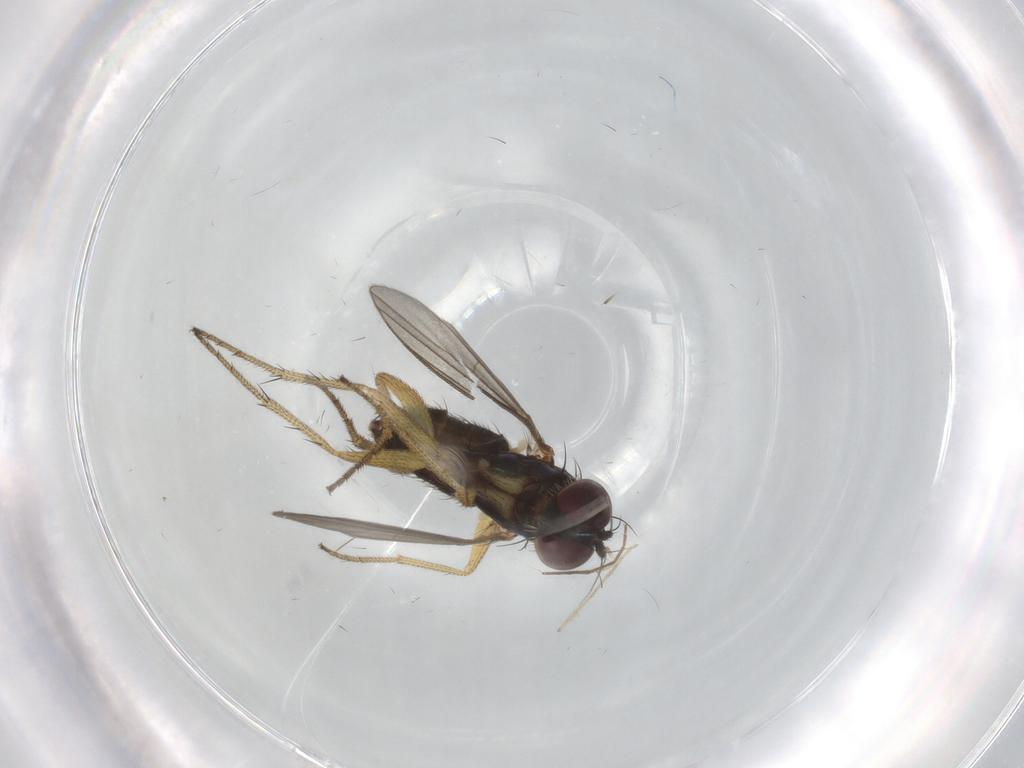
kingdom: Animalia
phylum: Arthropoda
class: Insecta
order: Diptera
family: Chironomidae
